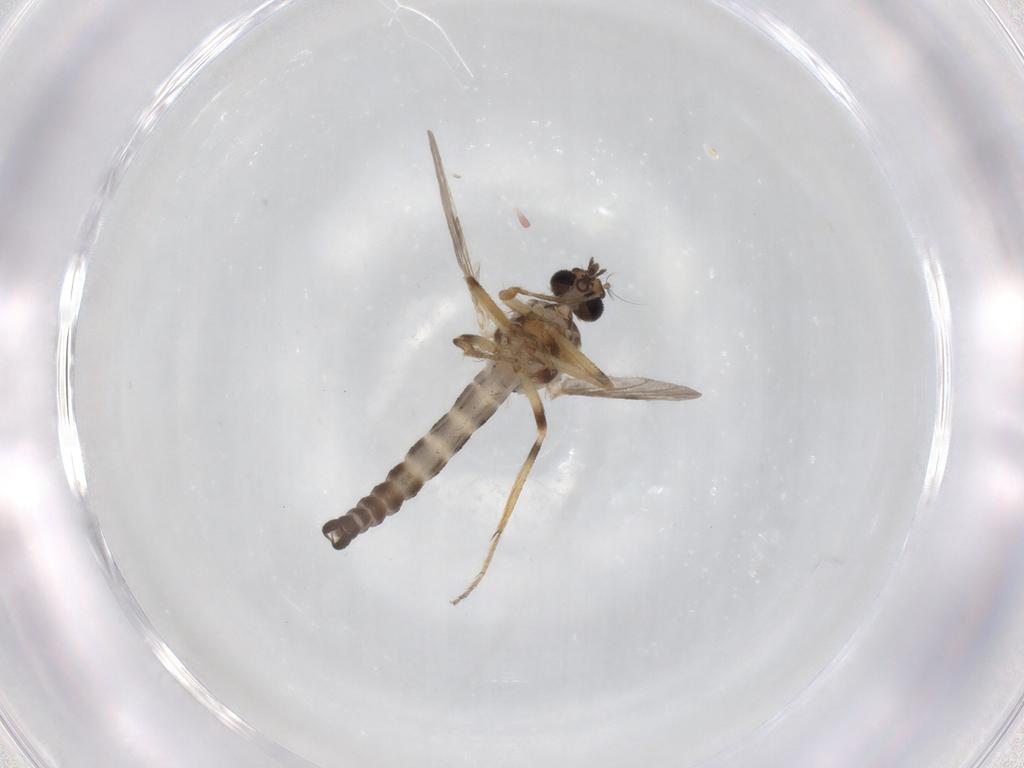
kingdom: Animalia
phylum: Arthropoda
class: Insecta
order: Diptera
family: Ceratopogonidae
